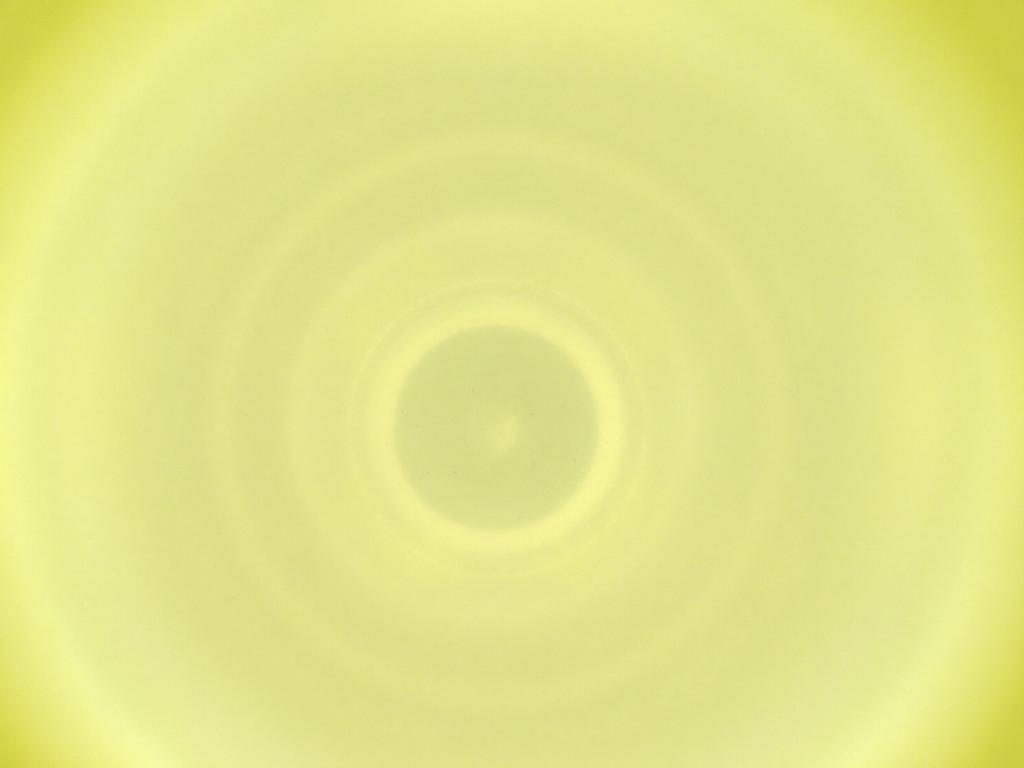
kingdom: Animalia
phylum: Arthropoda
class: Insecta
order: Diptera
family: Cecidomyiidae
